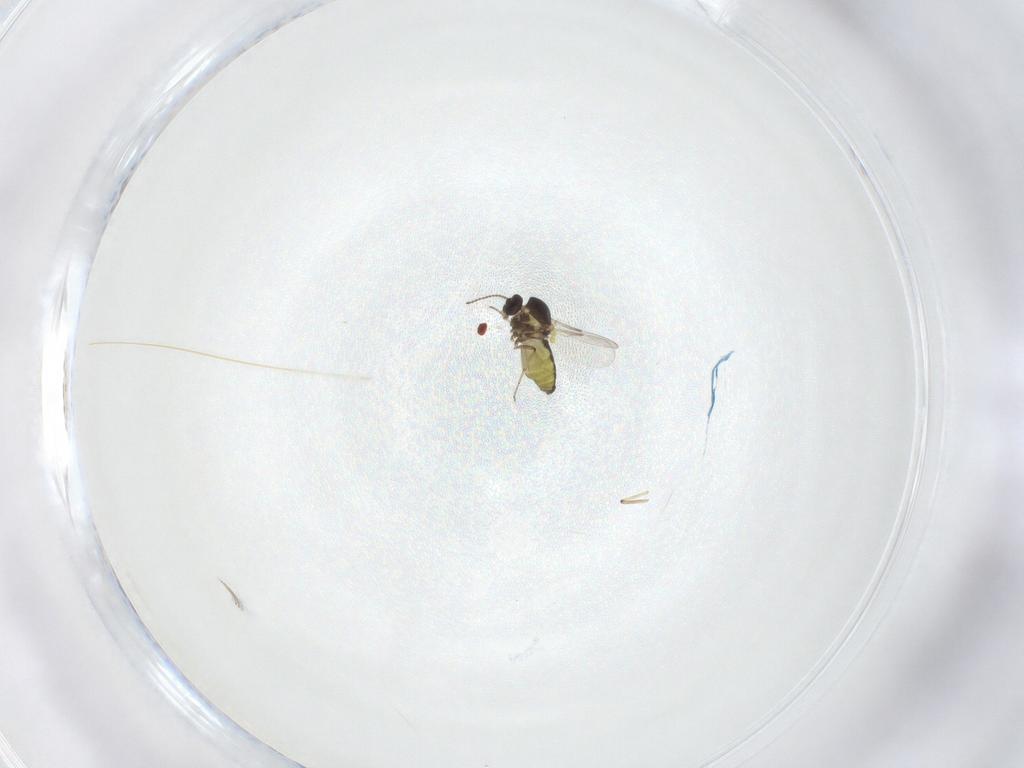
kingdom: Animalia
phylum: Arthropoda
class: Insecta
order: Diptera
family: Ceratopogonidae
